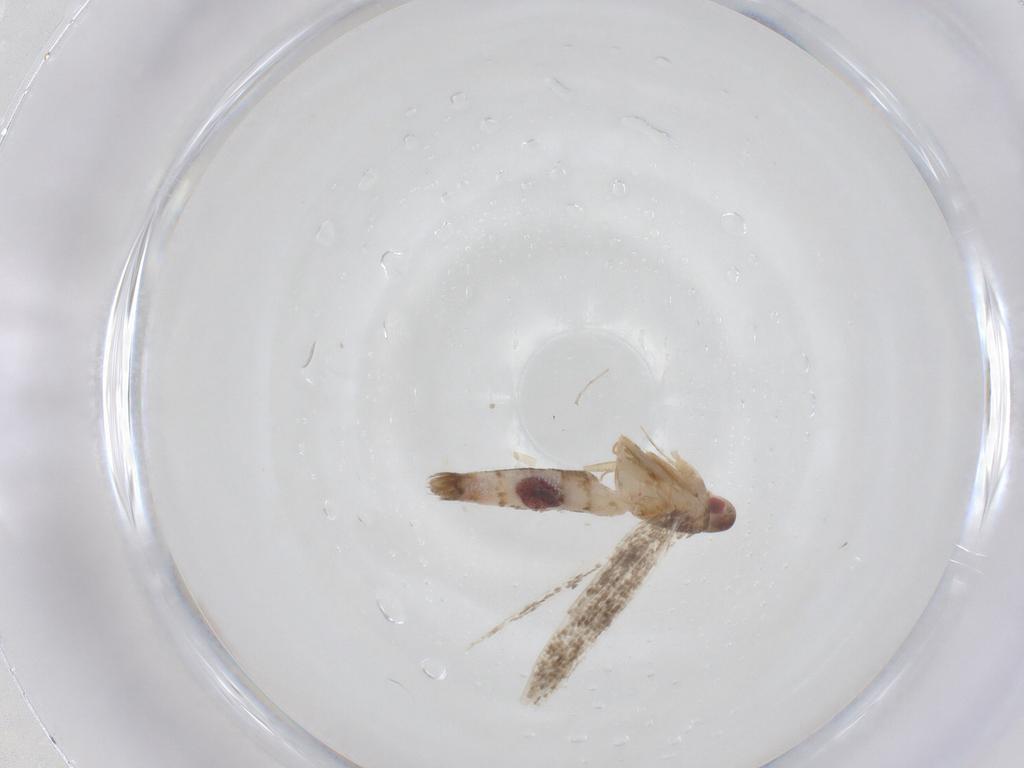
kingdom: Animalia
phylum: Arthropoda
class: Insecta
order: Lepidoptera
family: Cosmopterigidae
